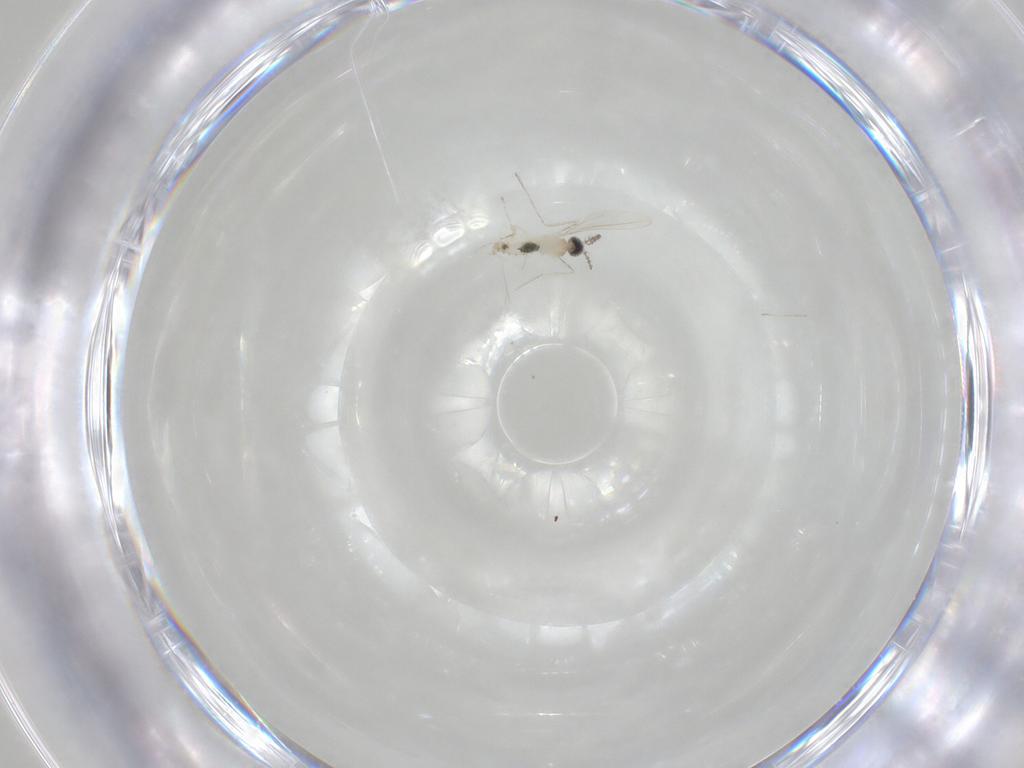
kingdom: Animalia
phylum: Arthropoda
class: Insecta
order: Diptera
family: Cecidomyiidae
